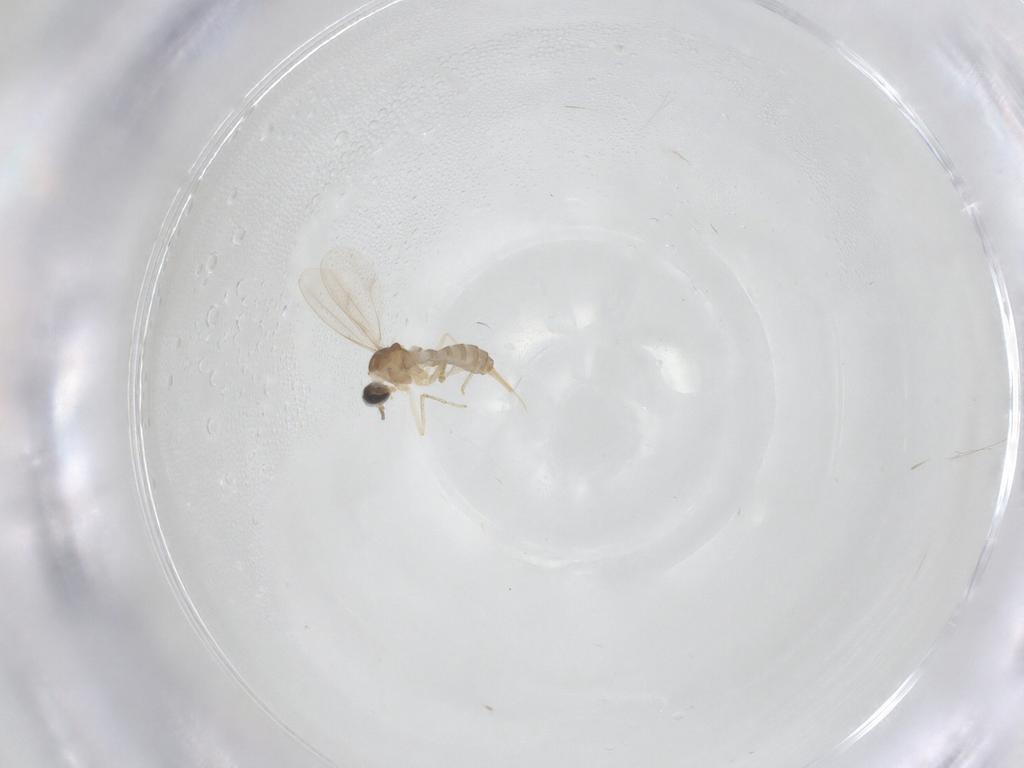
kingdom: Animalia
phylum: Arthropoda
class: Insecta
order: Diptera
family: Cecidomyiidae
